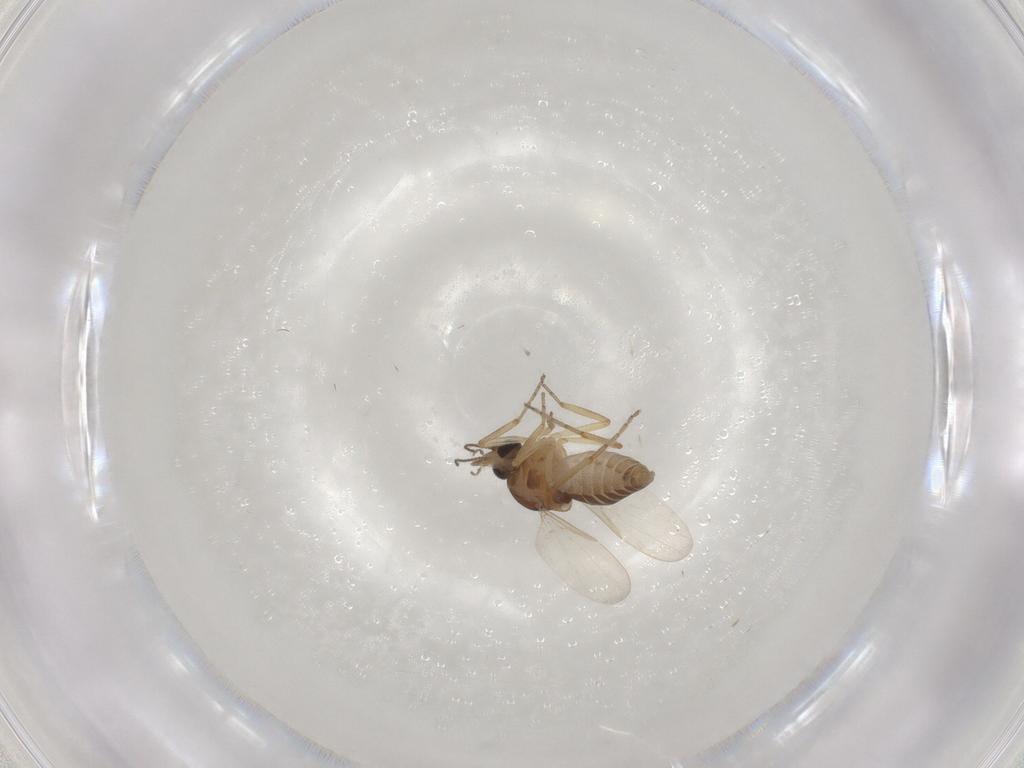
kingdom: Animalia
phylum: Arthropoda
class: Insecta
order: Diptera
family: Ceratopogonidae
